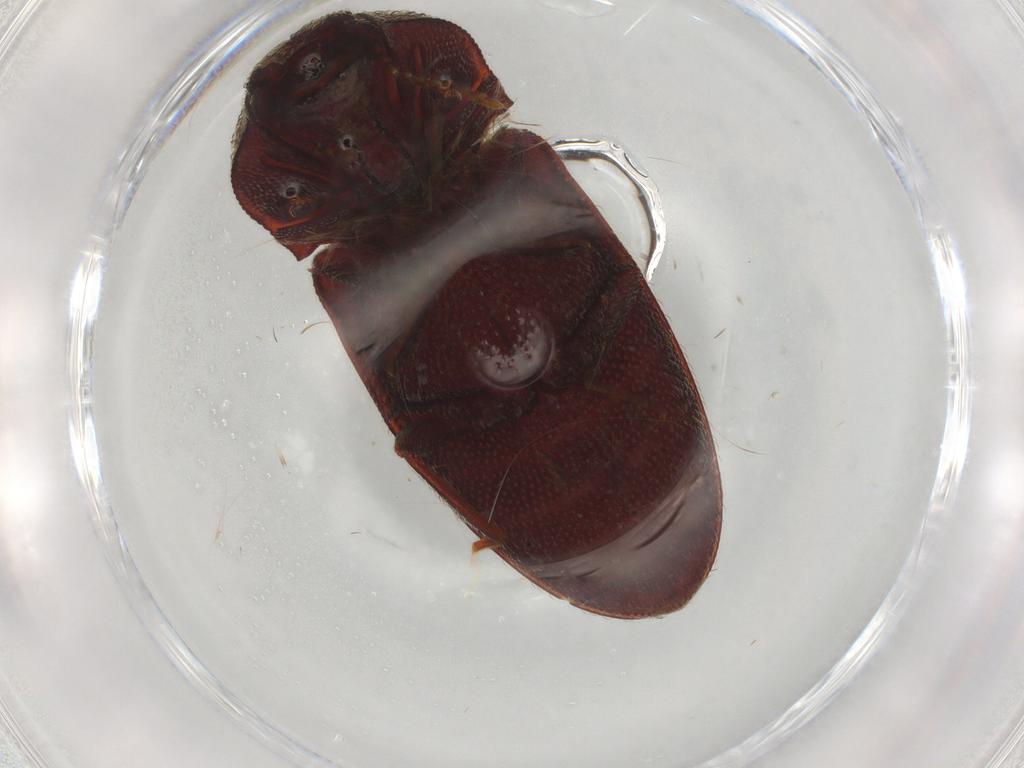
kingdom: Animalia
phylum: Arthropoda
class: Insecta
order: Coleoptera
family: Elateridae
